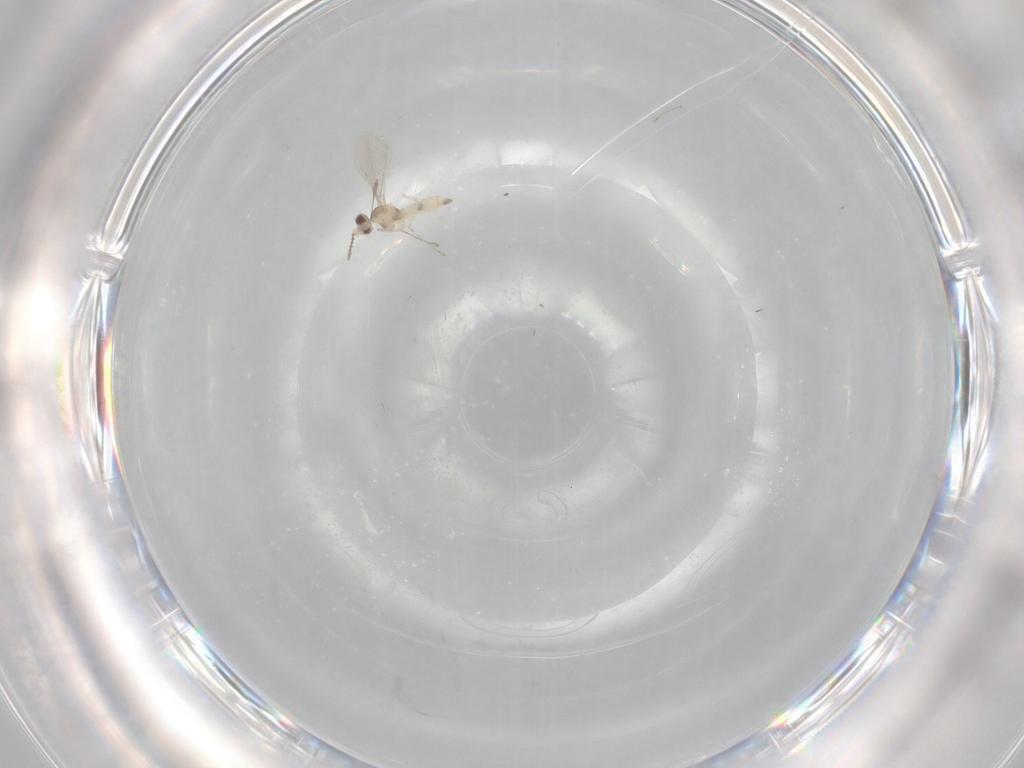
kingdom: Animalia
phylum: Arthropoda
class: Insecta
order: Diptera
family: Cecidomyiidae
